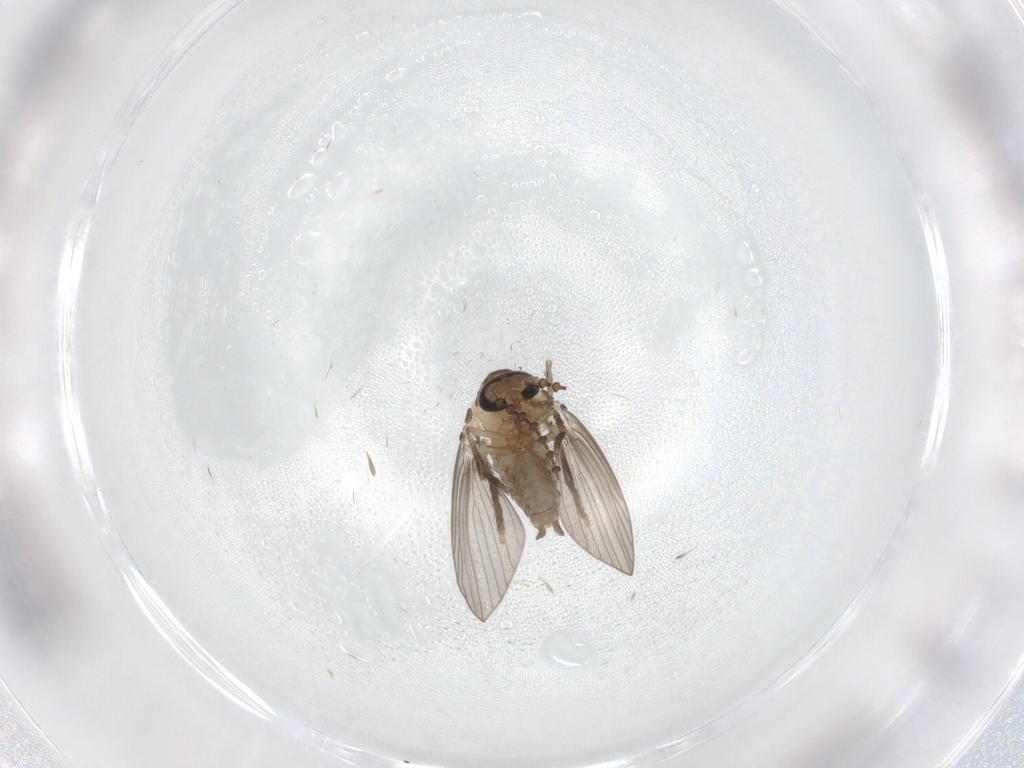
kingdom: Animalia
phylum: Arthropoda
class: Insecta
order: Diptera
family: Psychodidae
